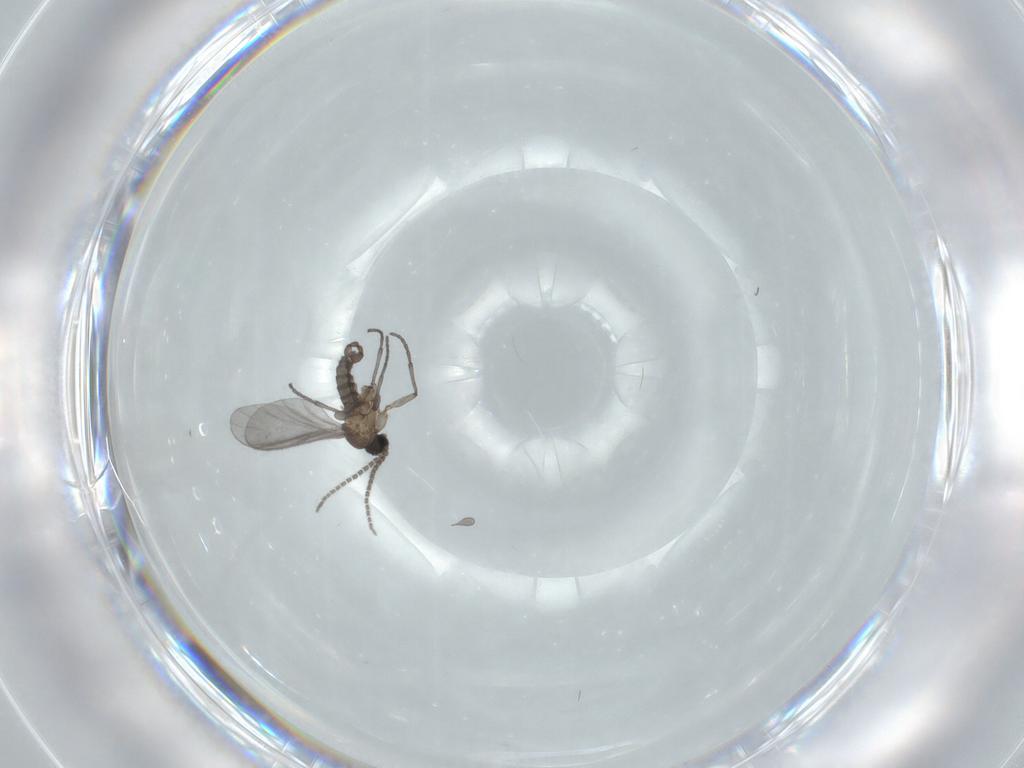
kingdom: Animalia
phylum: Arthropoda
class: Insecta
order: Diptera
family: Sciaridae
